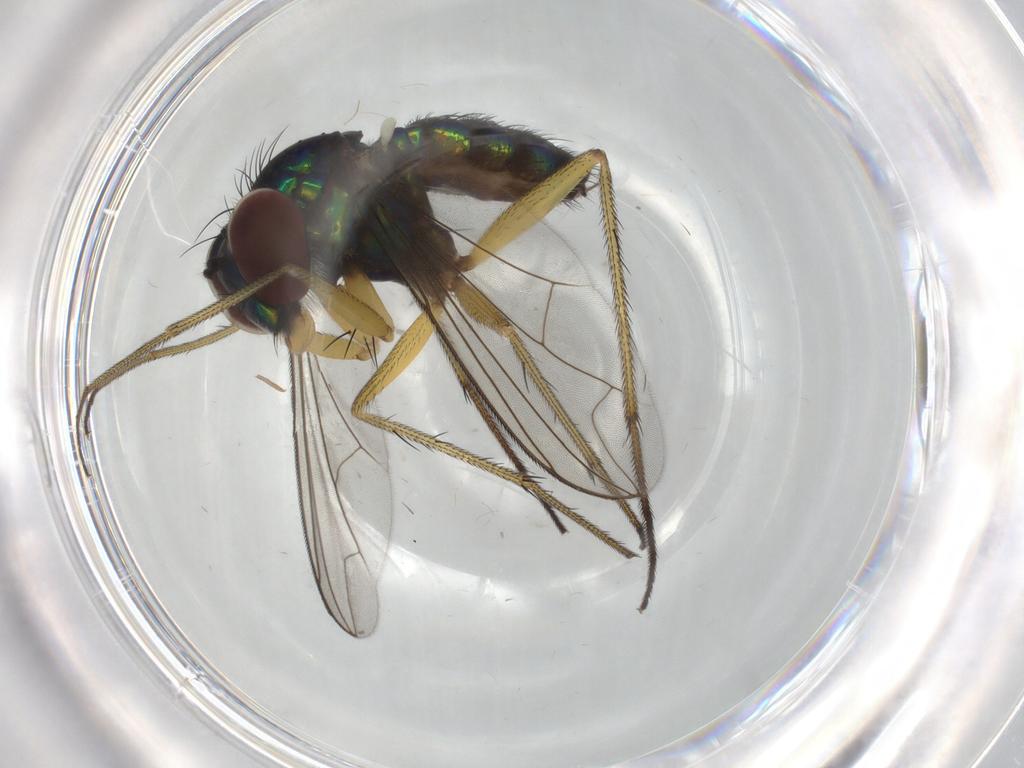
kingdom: Animalia
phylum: Arthropoda
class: Insecta
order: Diptera
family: Dolichopodidae
